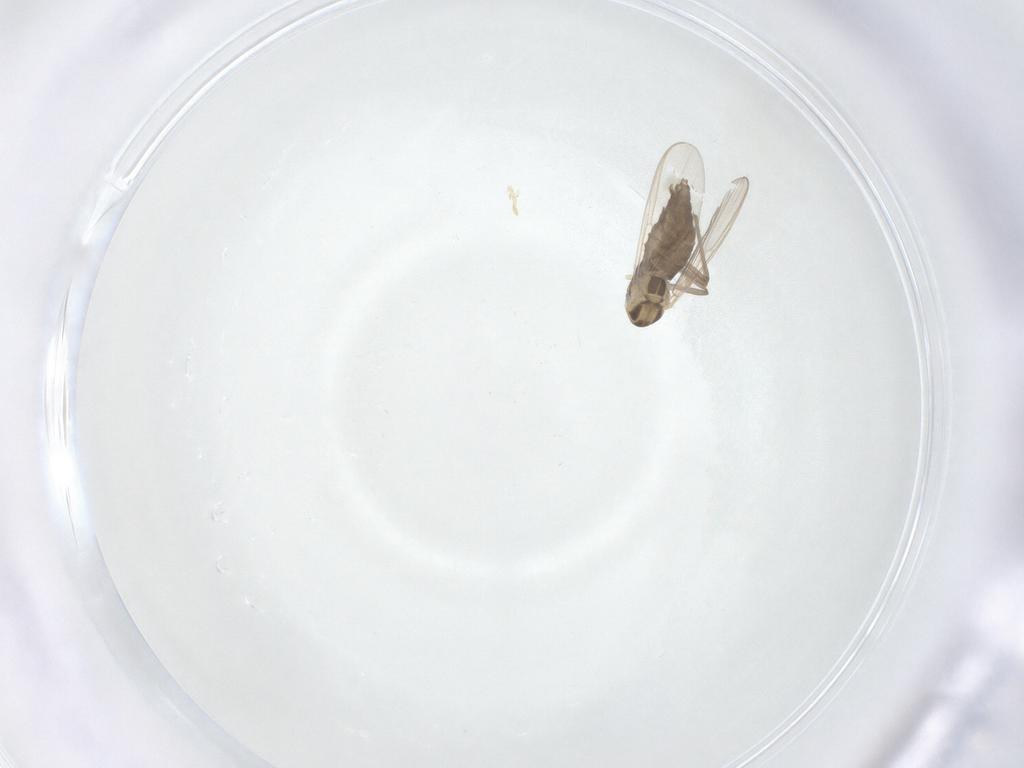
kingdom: Animalia
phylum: Arthropoda
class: Insecta
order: Diptera
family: Chironomidae
